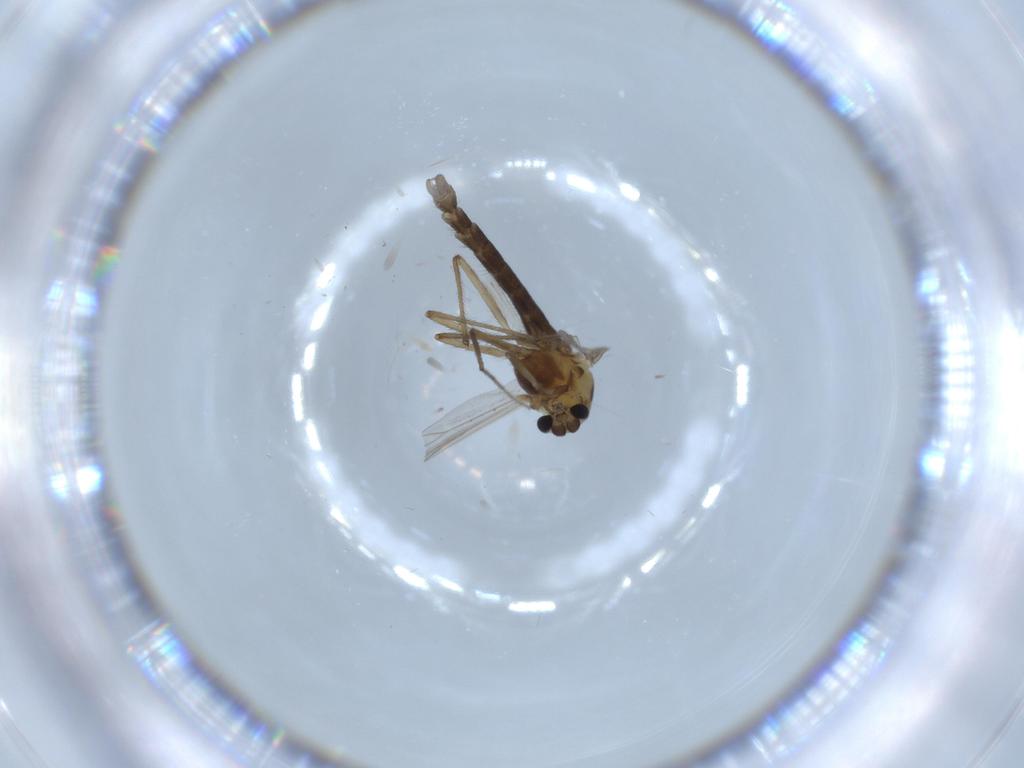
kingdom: Animalia
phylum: Arthropoda
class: Insecta
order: Diptera
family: Chironomidae
